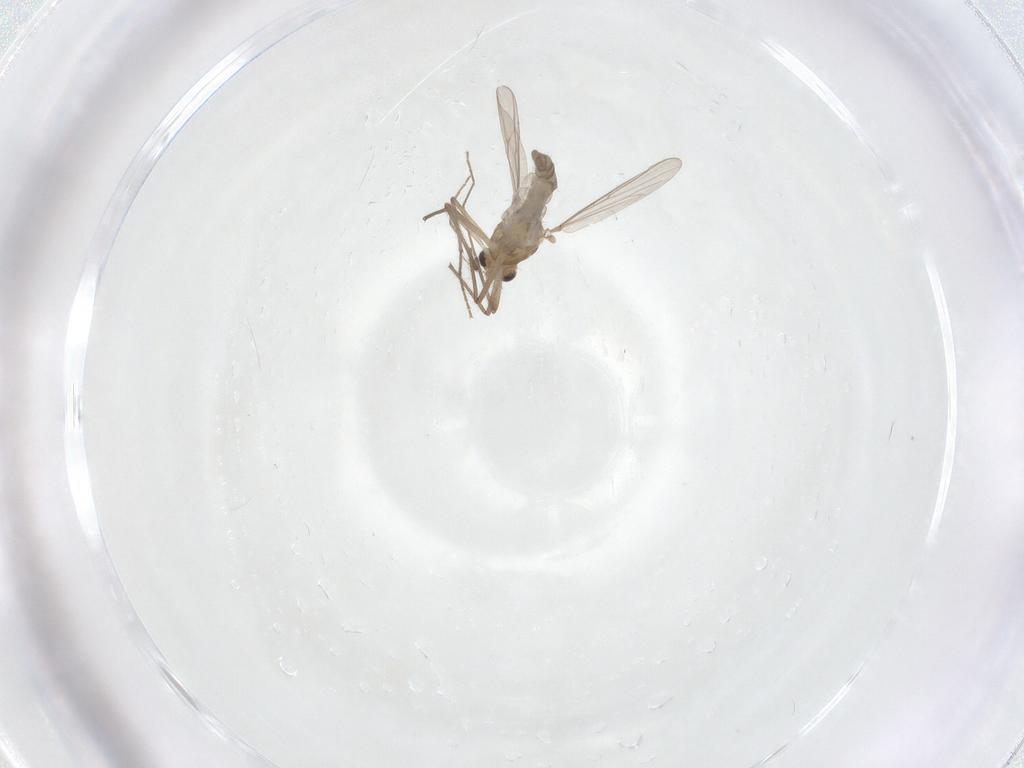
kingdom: Animalia
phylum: Arthropoda
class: Insecta
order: Diptera
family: Chironomidae
